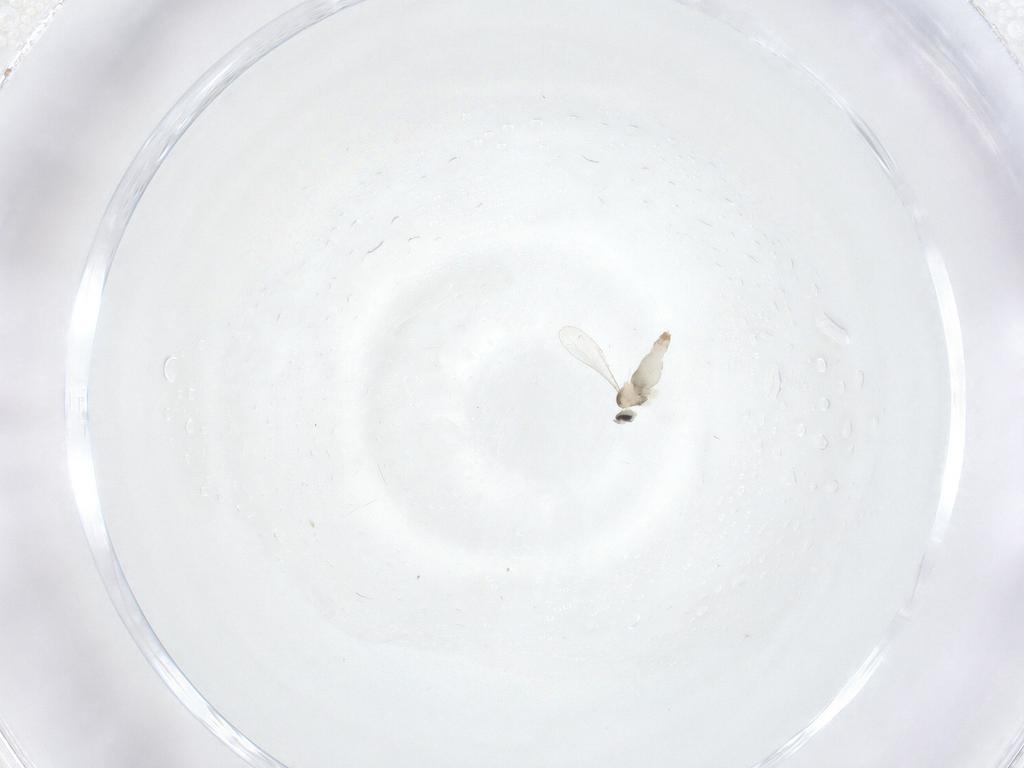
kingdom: Animalia
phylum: Arthropoda
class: Insecta
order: Diptera
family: Cecidomyiidae
